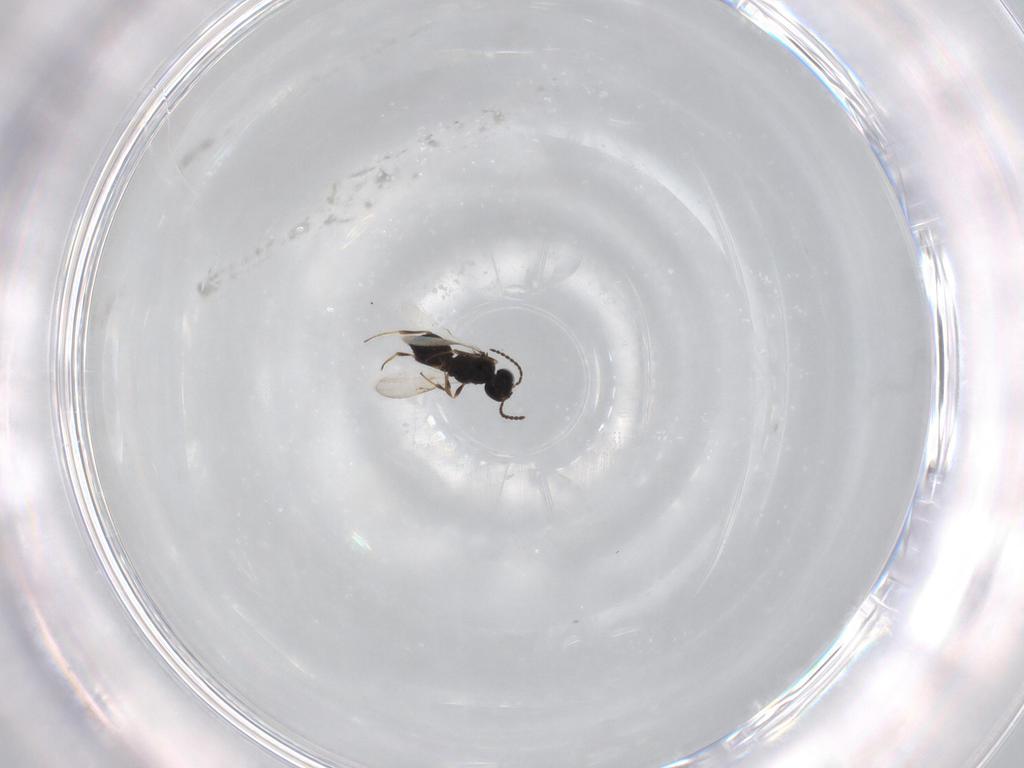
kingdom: Animalia
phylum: Arthropoda
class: Insecta
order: Hymenoptera
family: Scelionidae
